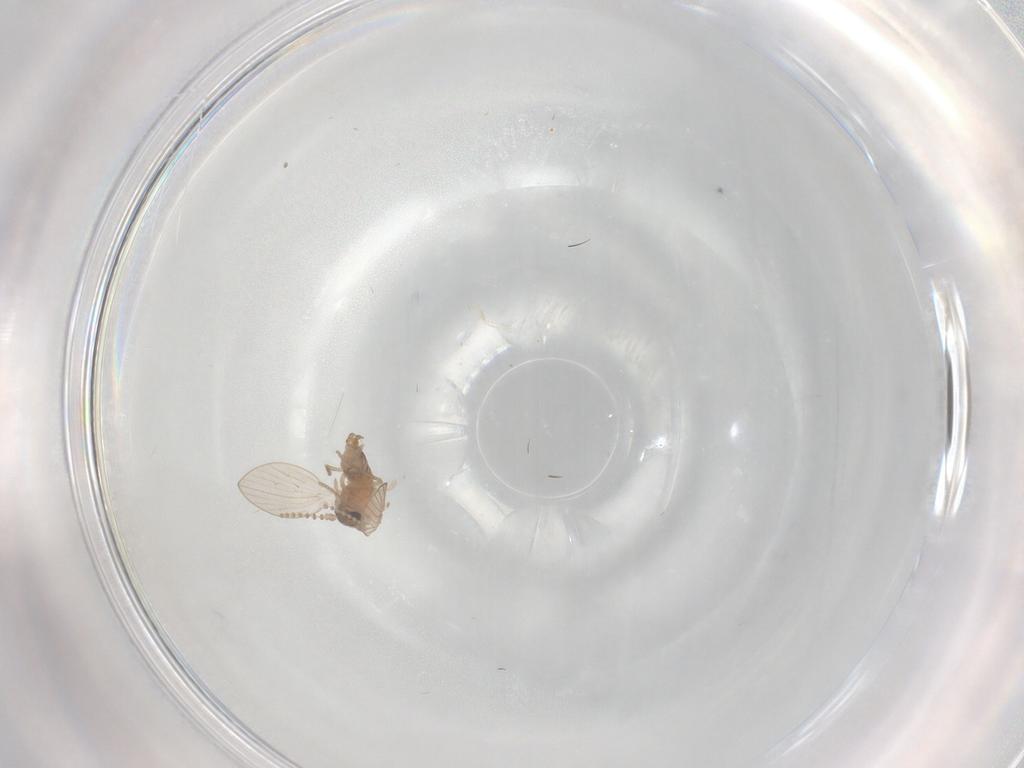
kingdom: Animalia
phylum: Arthropoda
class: Insecta
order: Diptera
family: Psychodidae
